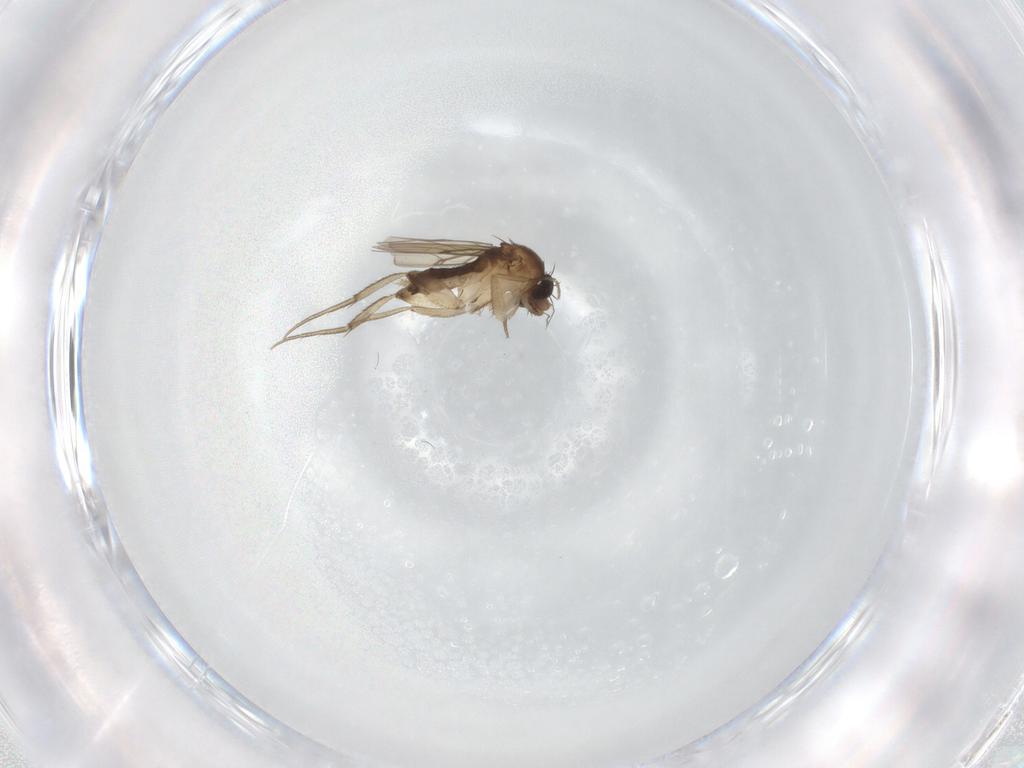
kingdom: Animalia
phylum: Arthropoda
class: Insecta
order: Diptera
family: Phoridae
